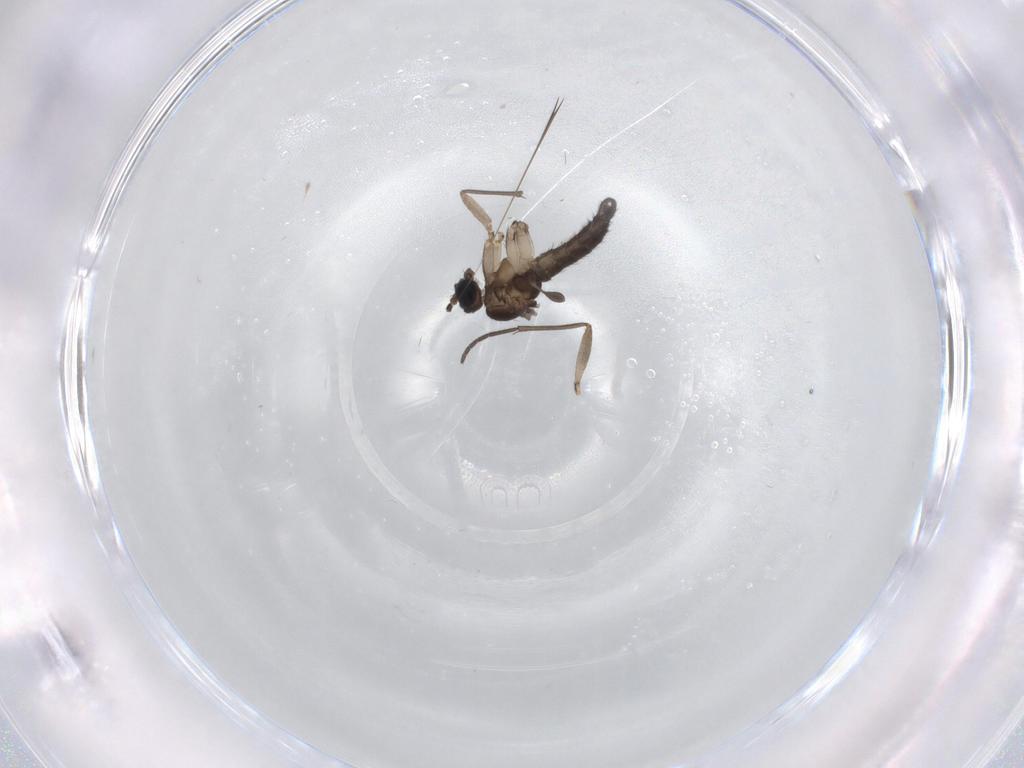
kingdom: Animalia
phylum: Arthropoda
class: Insecta
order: Diptera
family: Sciaridae
